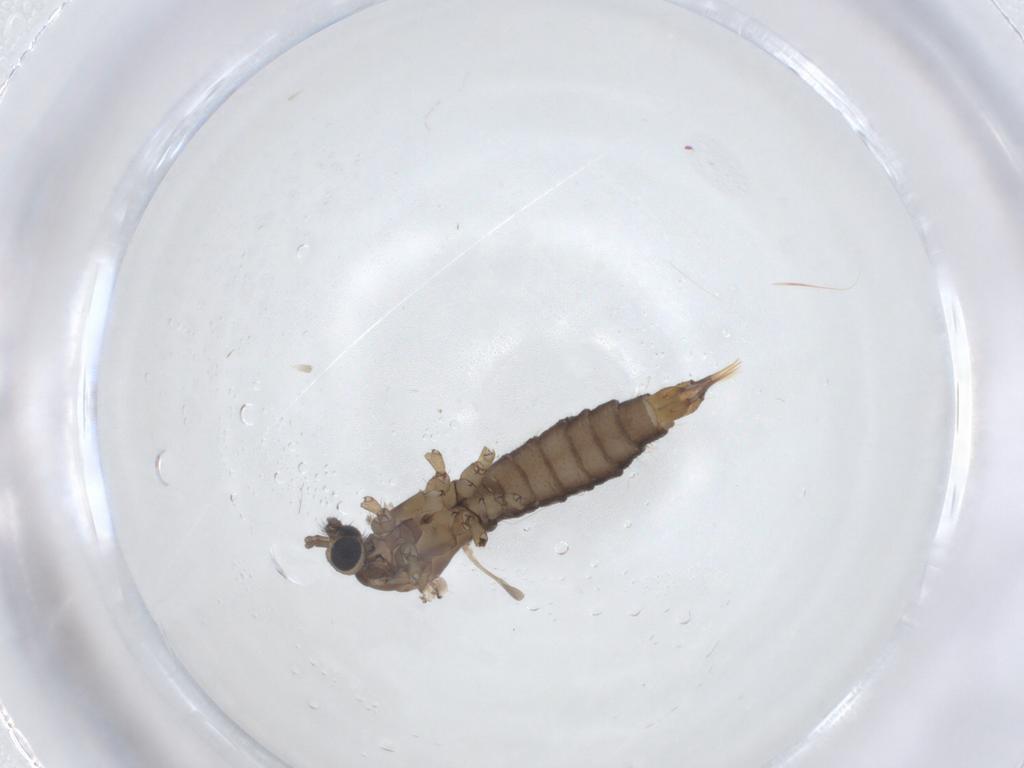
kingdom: Animalia
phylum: Arthropoda
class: Insecta
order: Diptera
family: Limoniidae
